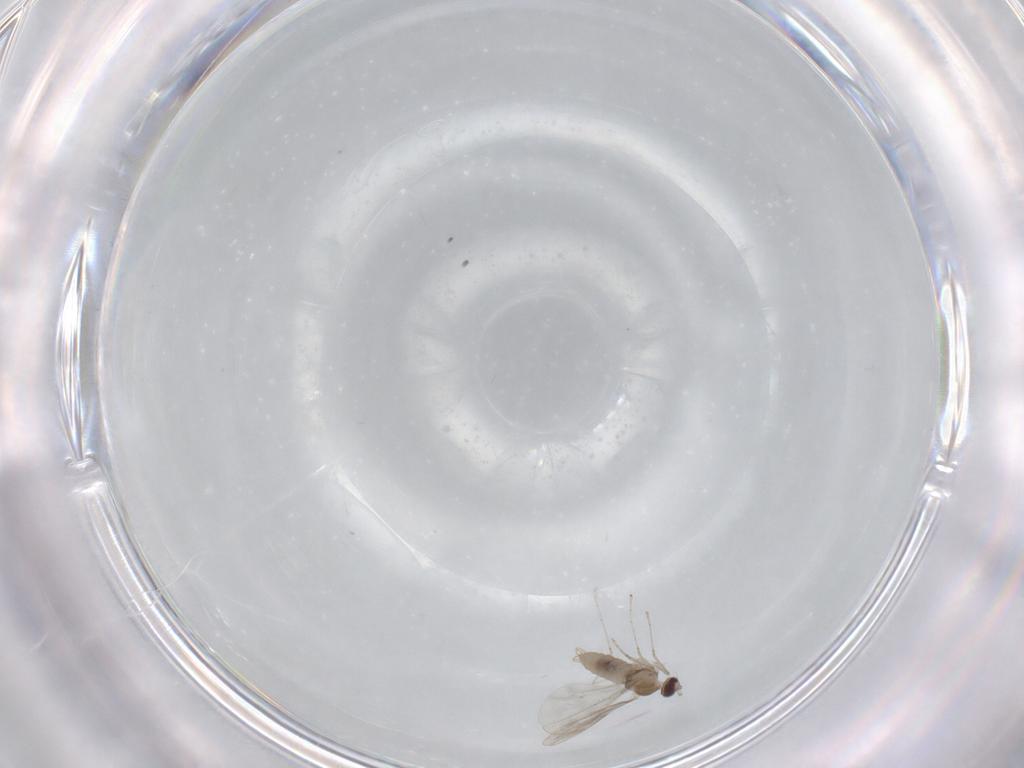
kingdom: Animalia
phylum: Arthropoda
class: Insecta
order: Diptera
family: Cecidomyiidae
